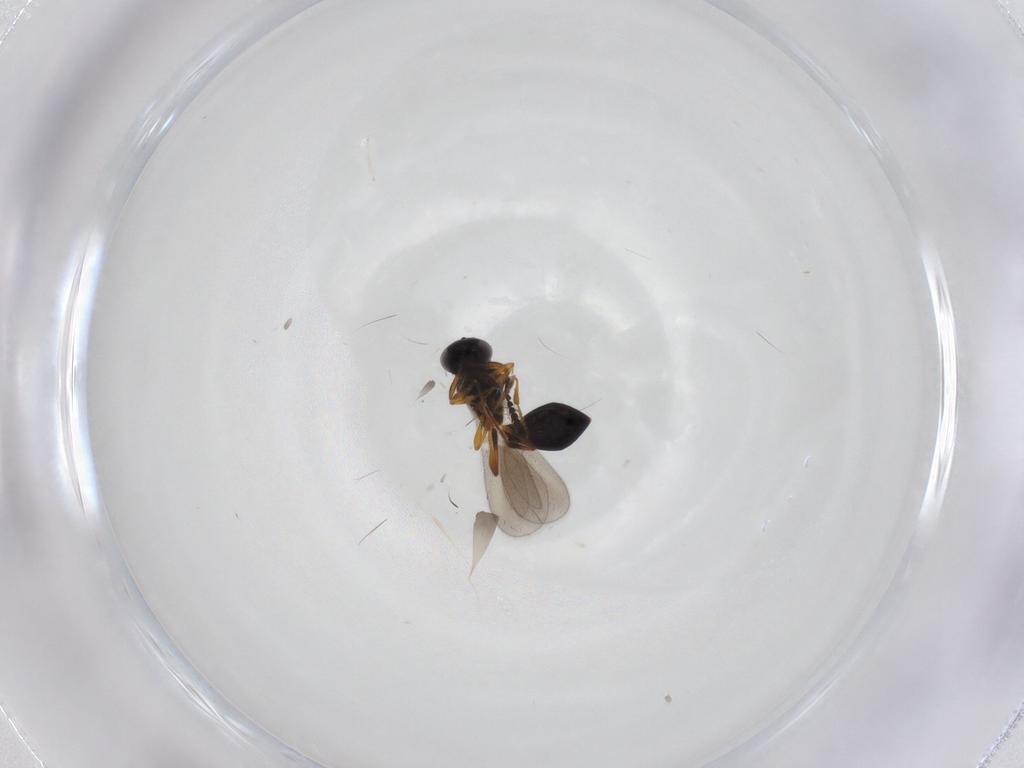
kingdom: Animalia
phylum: Arthropoda
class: Insecta
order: Hymenoptera
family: Platygastridae
